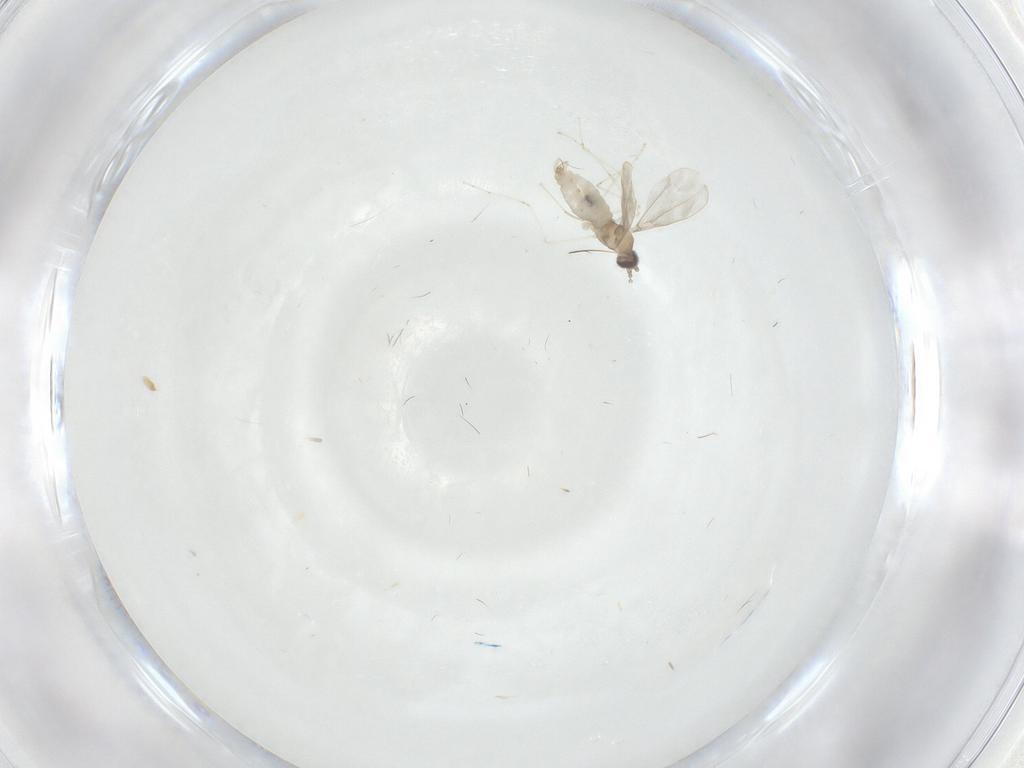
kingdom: Animalia
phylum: Arthropoda
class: Insecta
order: Diptera
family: Cecidomyiidae
